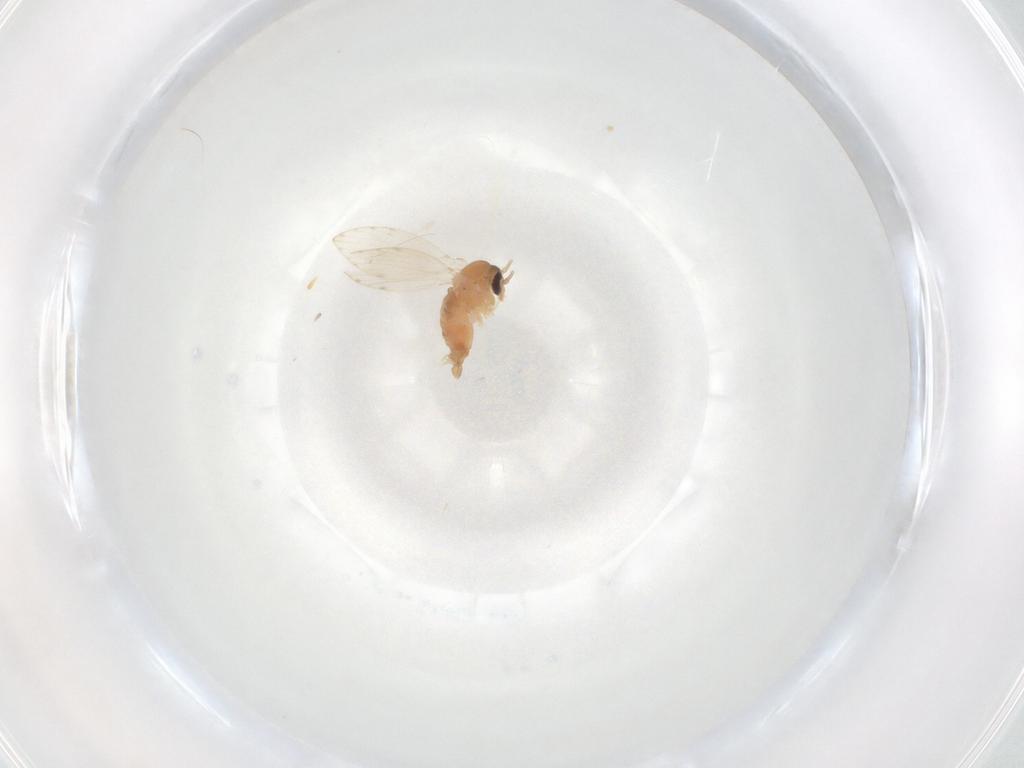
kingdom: Animalia
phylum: Arthropoda
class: Insecta
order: Diptera
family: Psychodidae
